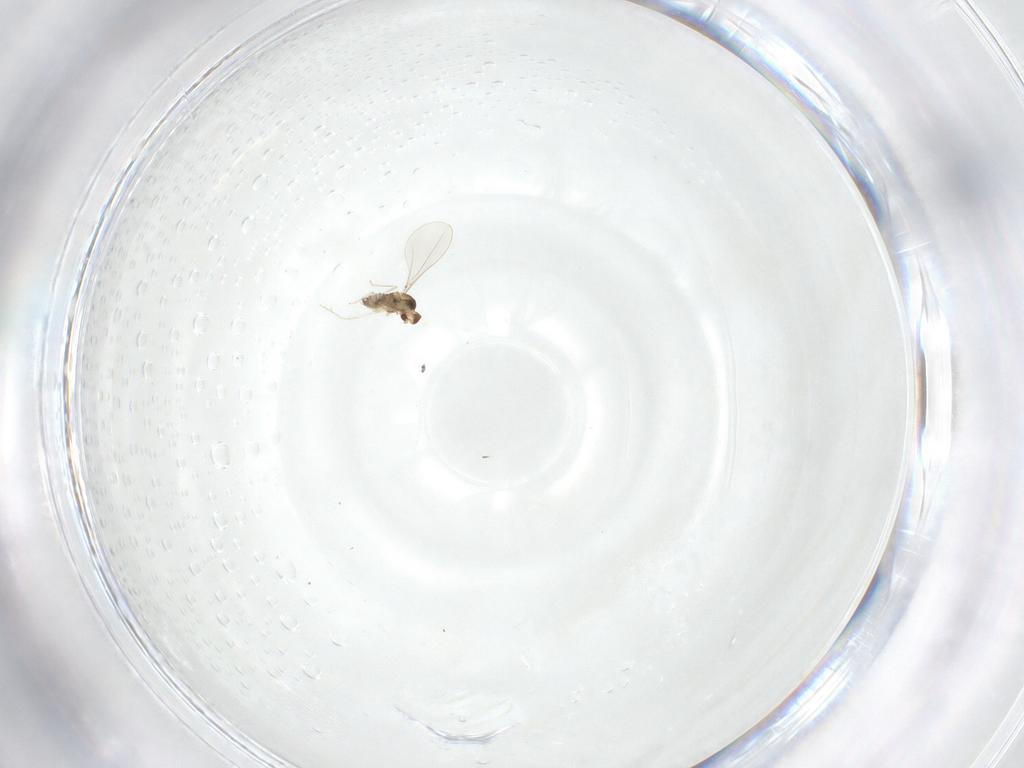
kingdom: Animalia
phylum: Arthropoda
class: Insecta
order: Diptera
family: Cecidomyiidae
